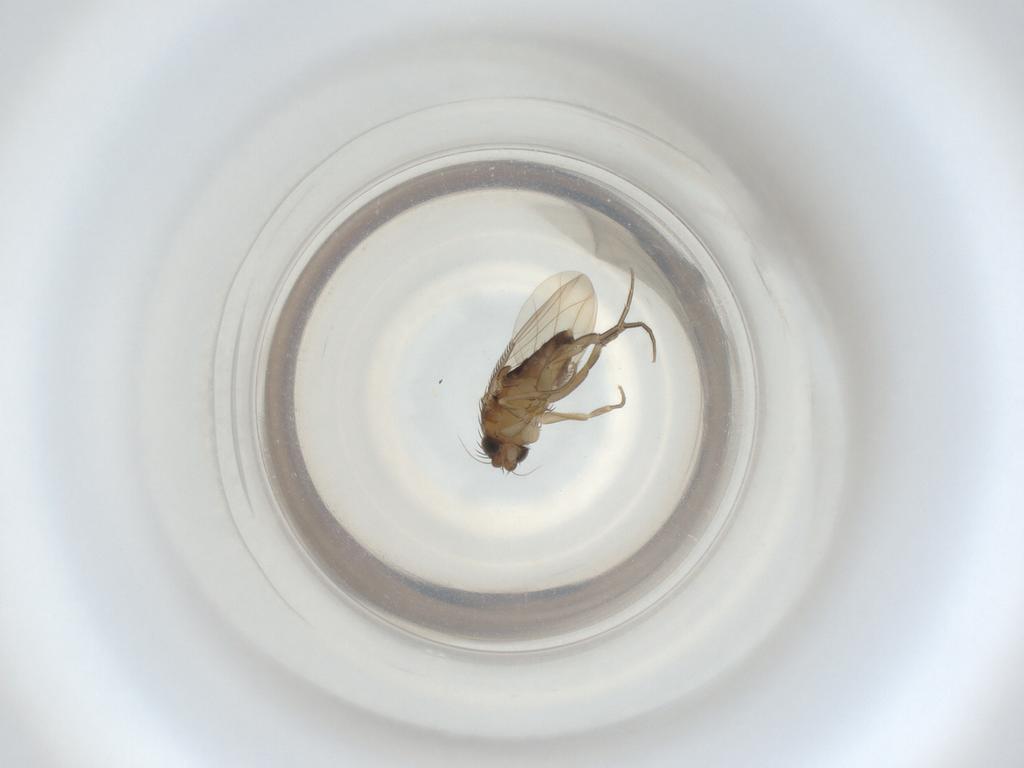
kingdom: Animalia
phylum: Arthropoda
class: Insecta
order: Diptera
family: Phoridae
